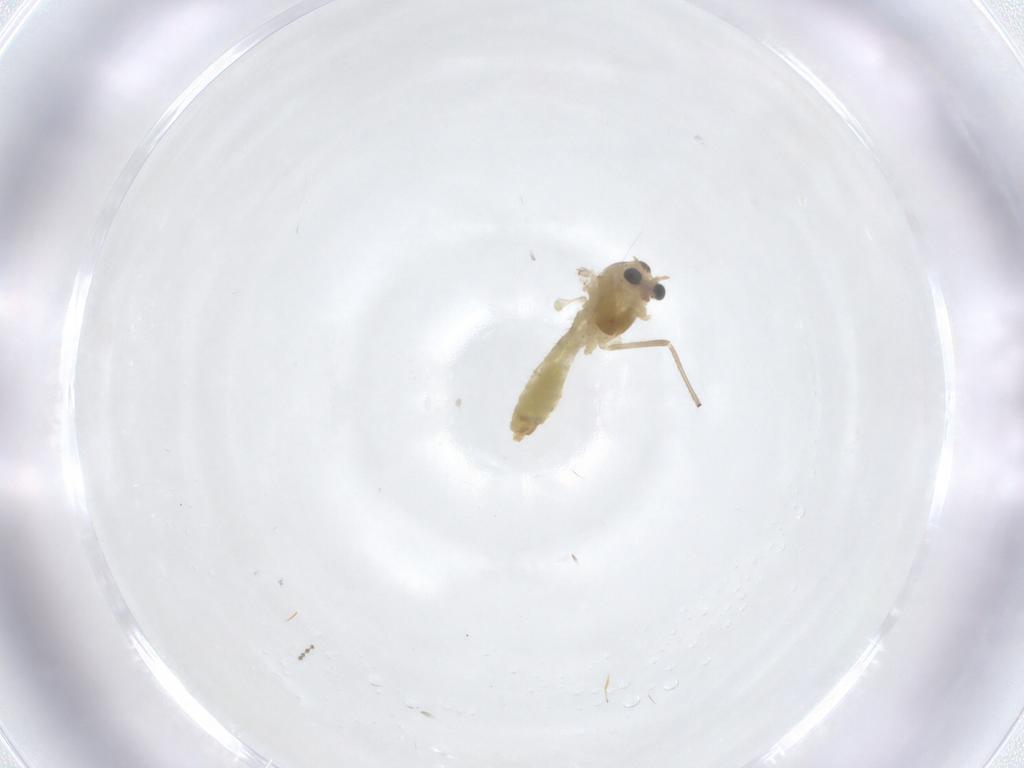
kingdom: Animalia
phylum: Arthropoda
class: Insecta
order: Diptera
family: Chironomidae
